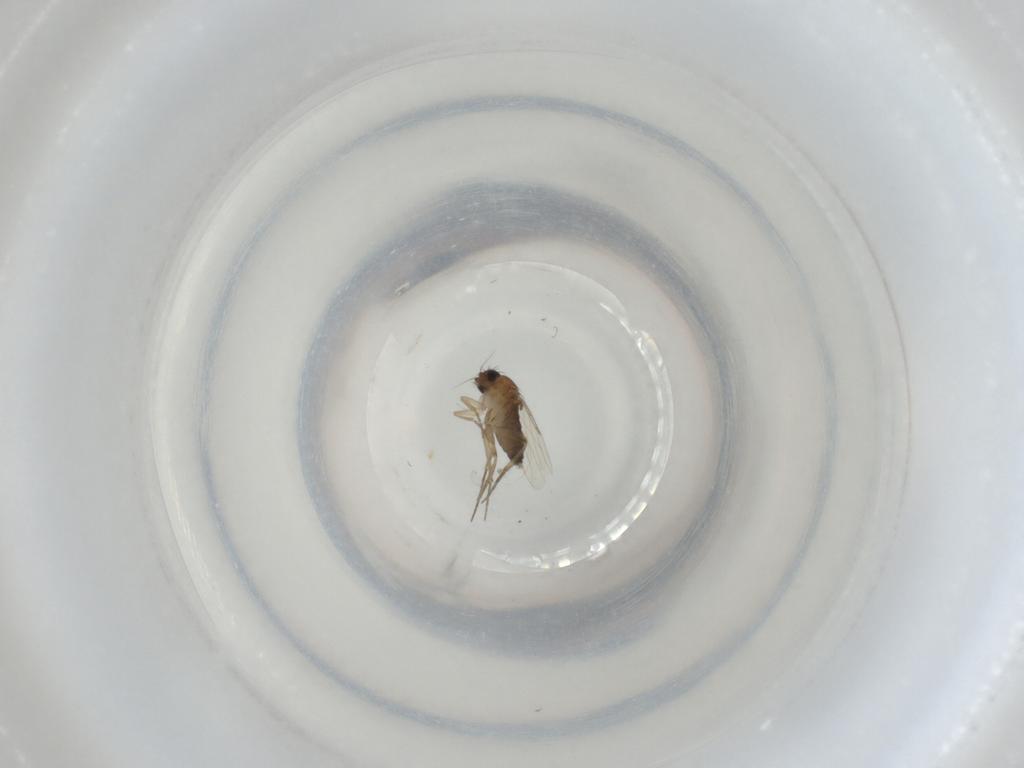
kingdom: Animalia
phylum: Arthropoda
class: Insecta
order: Diptera
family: Phoridae
